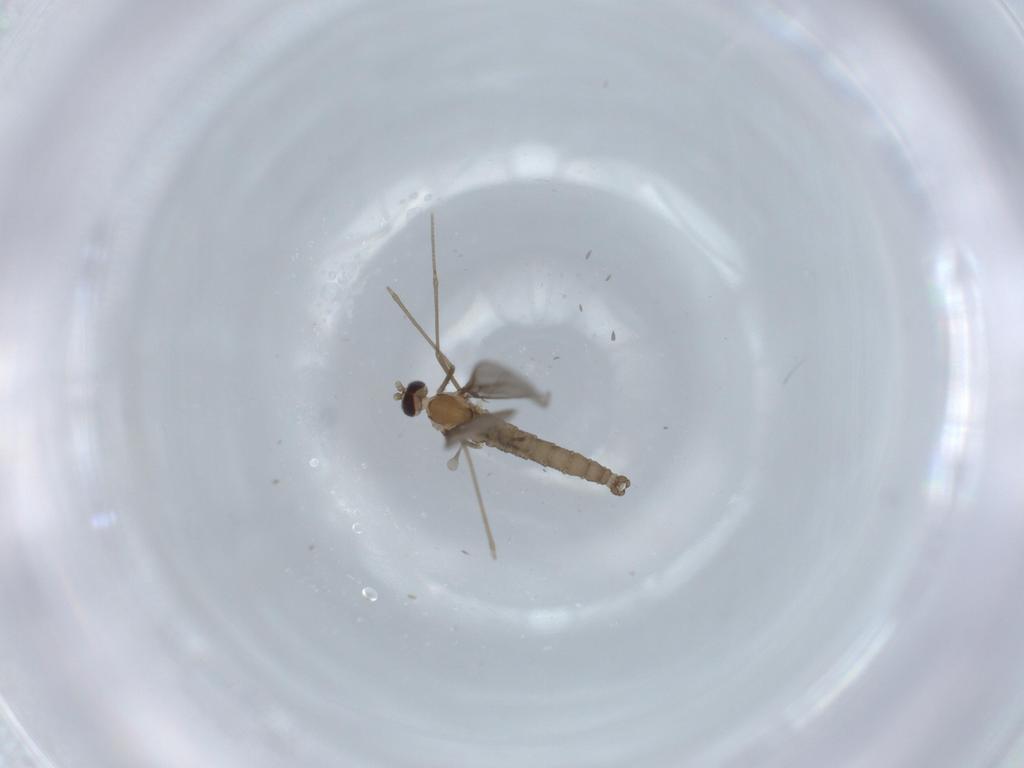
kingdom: Animalia
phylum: Arthropoda
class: Insecta
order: Diptera
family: Cecidomyiidae
